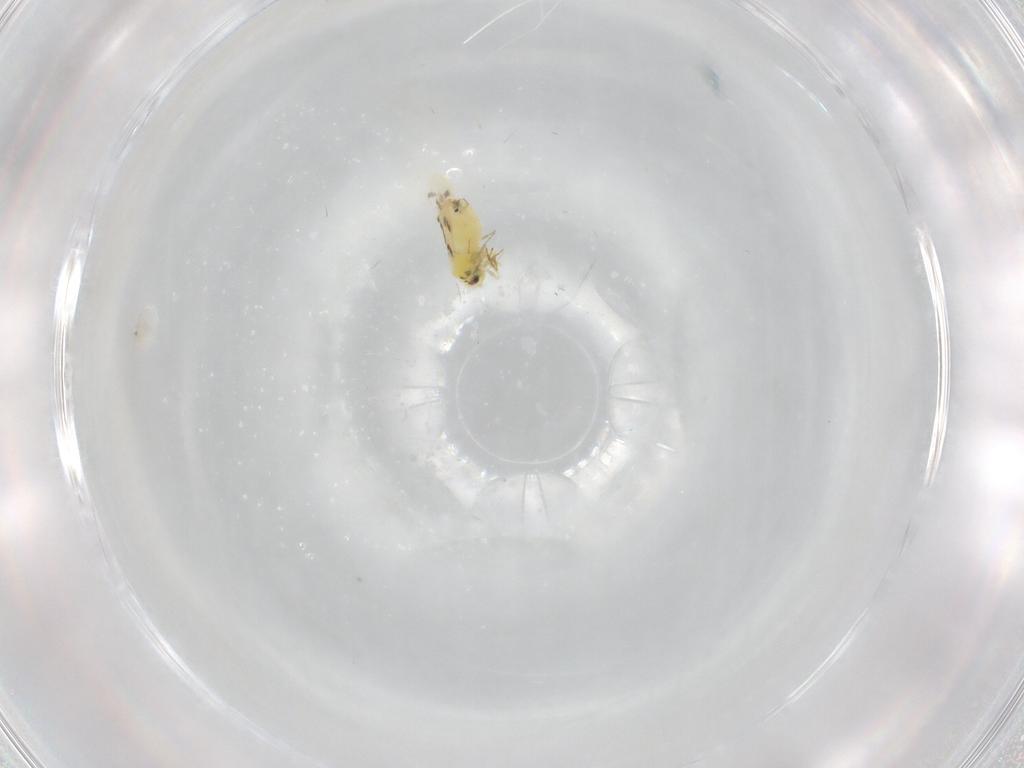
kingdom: Animalia
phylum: Arthropoda
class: Insecta
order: Hemiptera
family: Aleyrodidae
